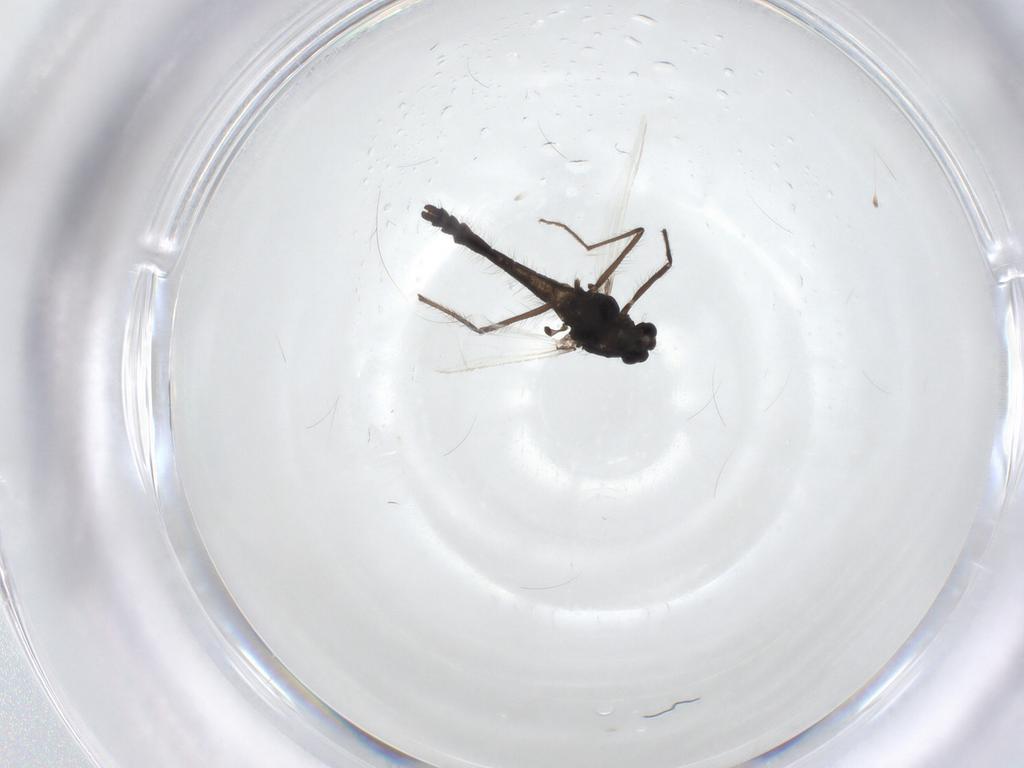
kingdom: Animalia
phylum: Arthropoda
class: Insecta
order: Diptera
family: Chironomidae
